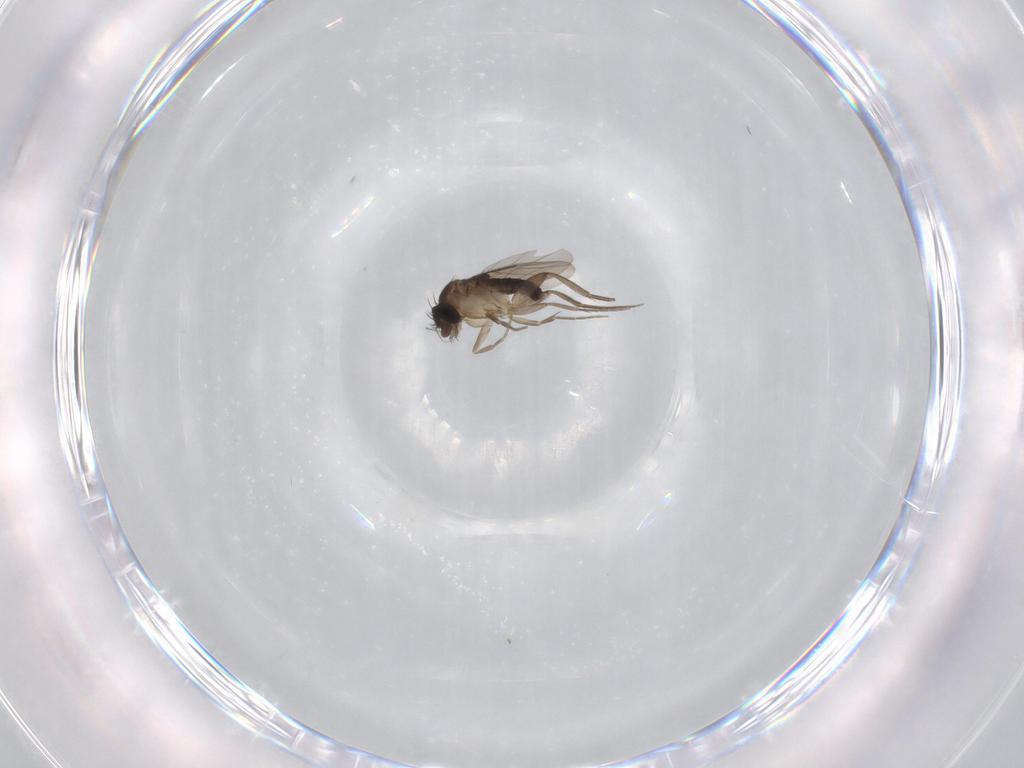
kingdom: Animalia
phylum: Arthropoda
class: Insecta
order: Diptera
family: Phoridae
